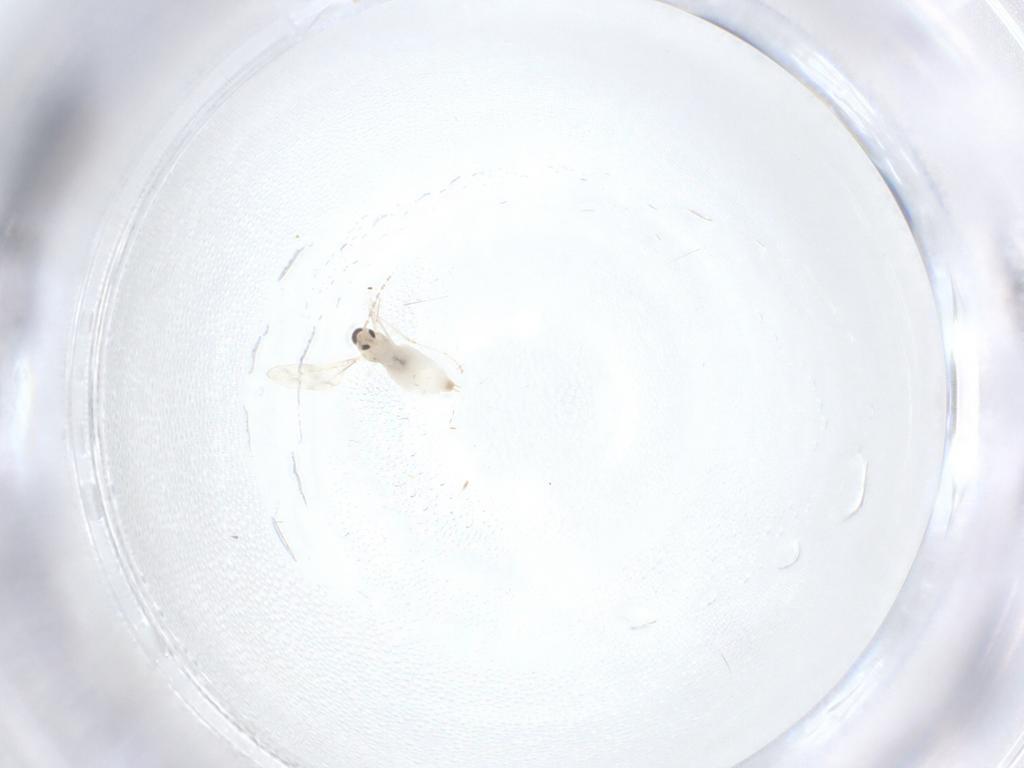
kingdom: Animalia
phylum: Arthropoda
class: Insecta
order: Diptera
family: Cecidomyiidae
